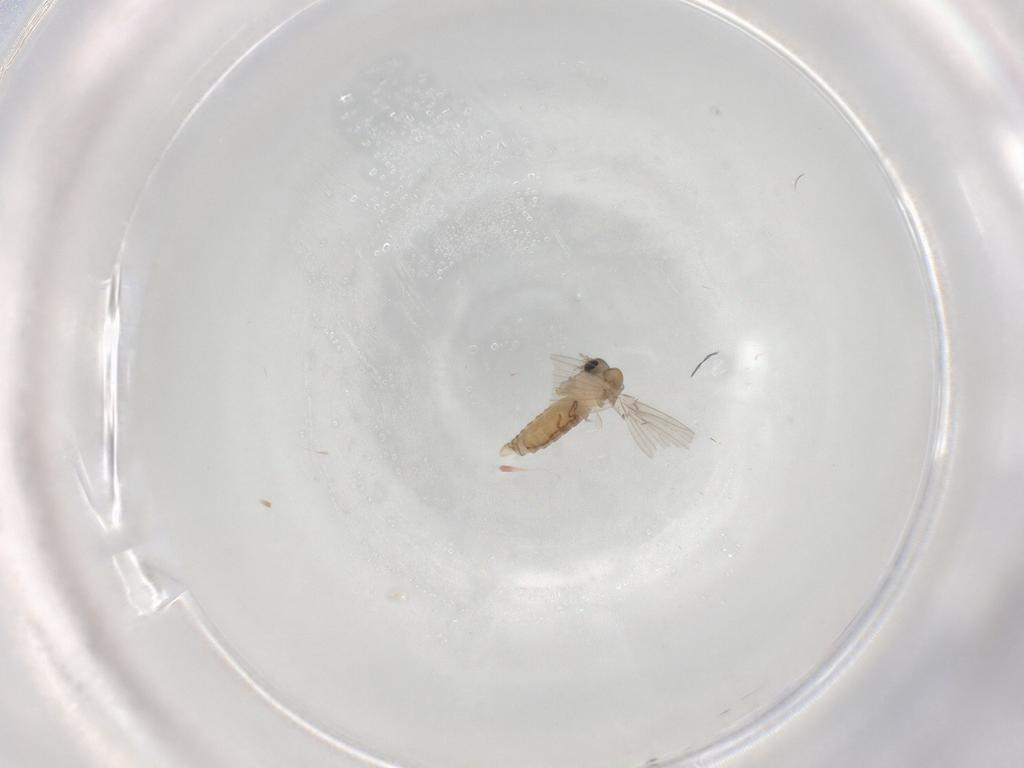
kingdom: Animalia
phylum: Arthropoda
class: Insecta
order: Diptera
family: Chironomidae
